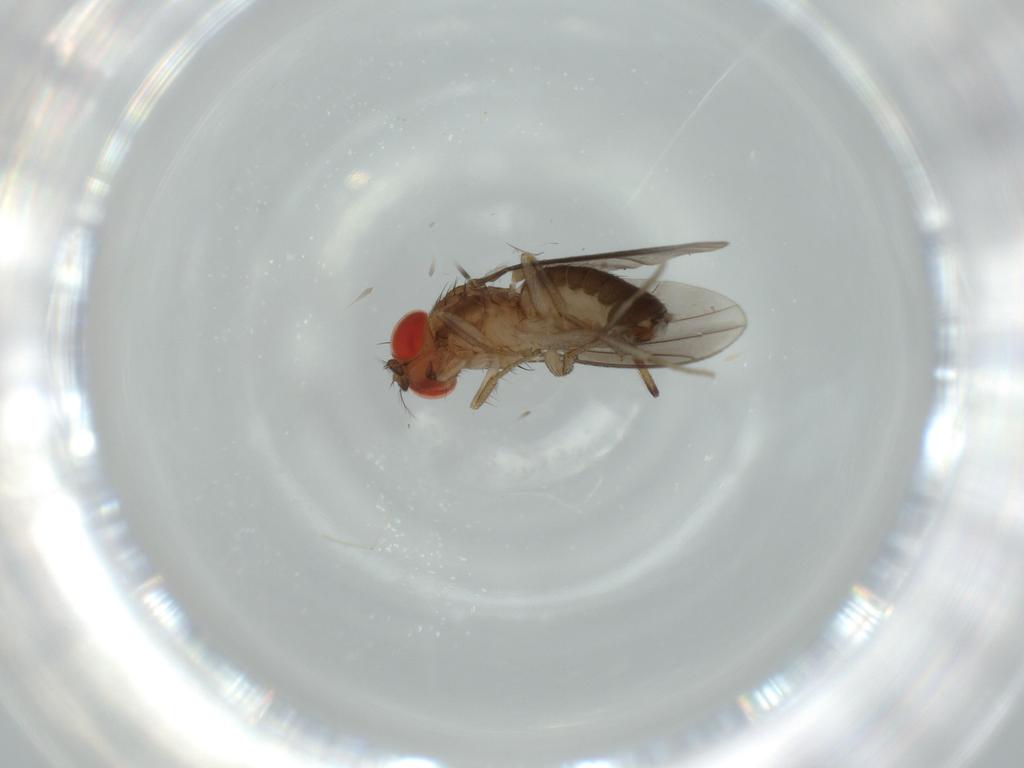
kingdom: Animalia
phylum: Arthropoda
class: Insecta
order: Diptera
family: Drosophilidae
